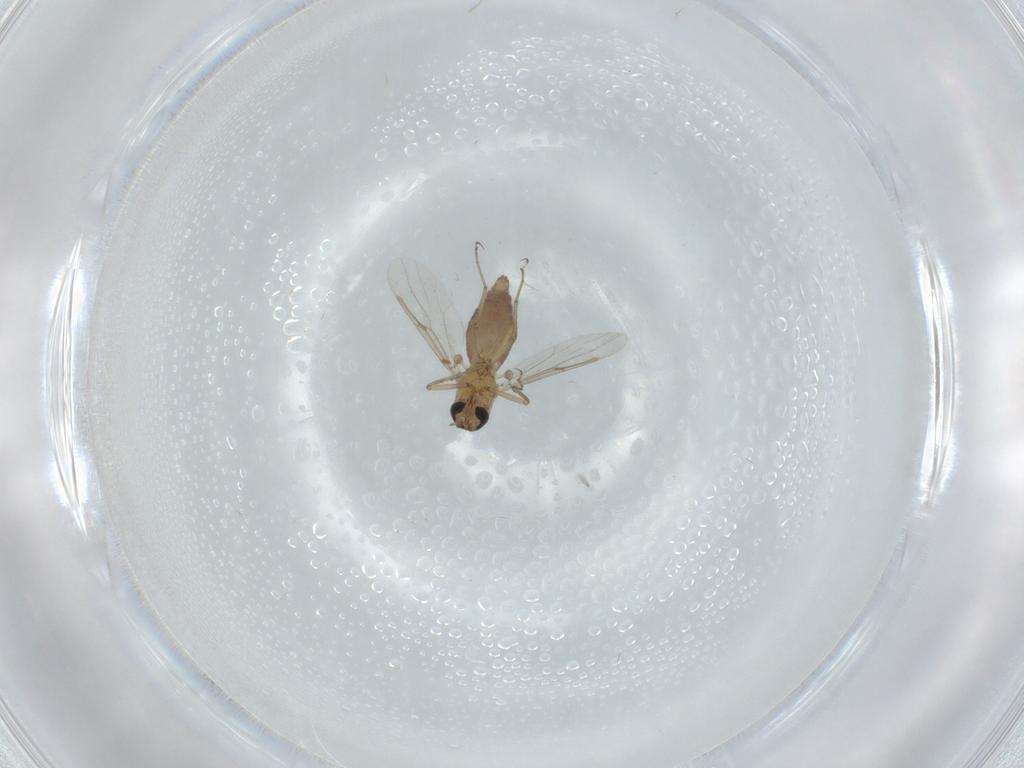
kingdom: Animalia
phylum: Arthropoda
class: Insecta
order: Diptera
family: Ceratopogonidae
